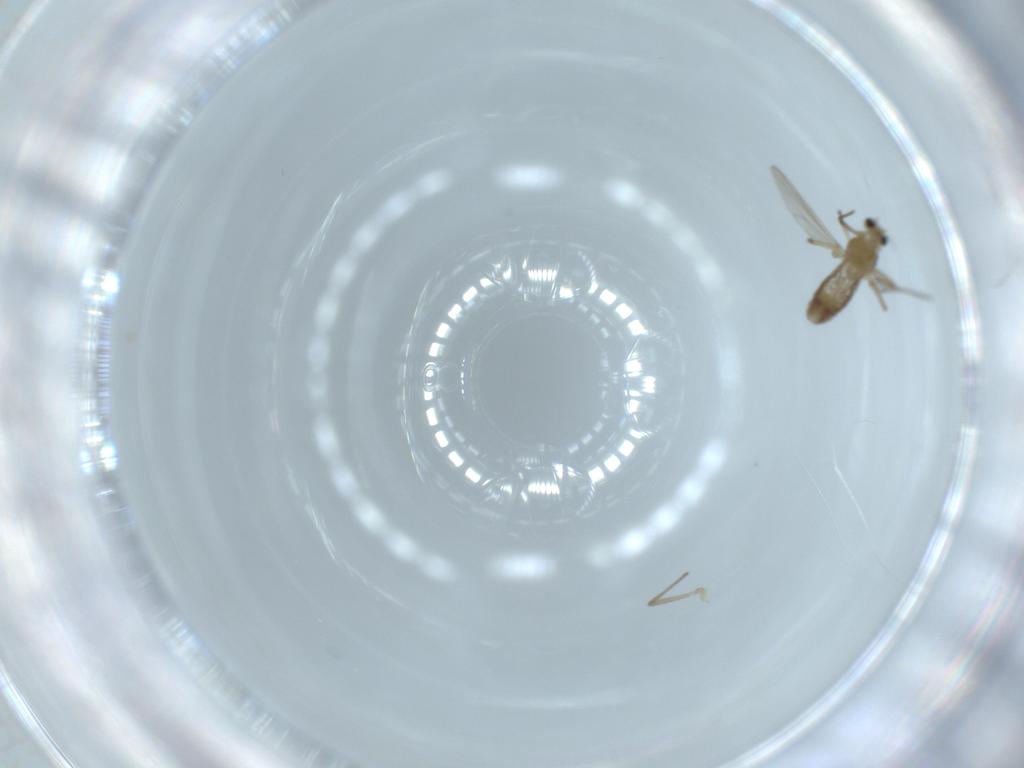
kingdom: Animalia
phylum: Arthropoda
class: Insecta
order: Diptera
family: Chironomidae
